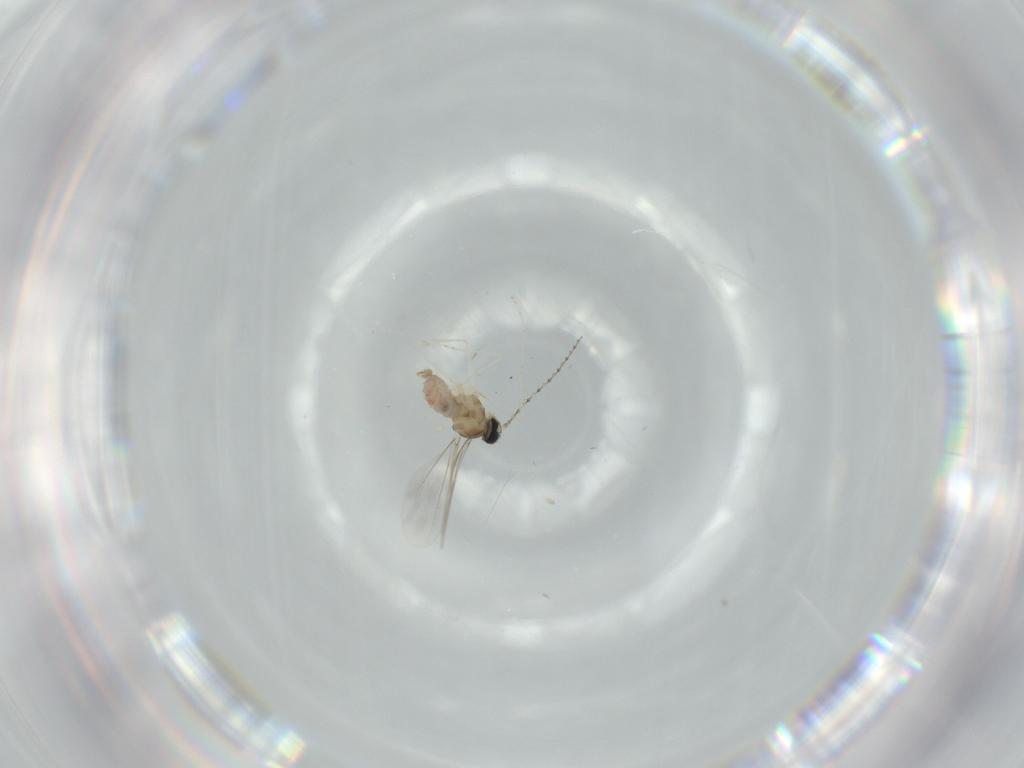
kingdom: Animalia
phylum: Arthropoda
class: Insecta
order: Diptera
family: Cecidomyiidae
